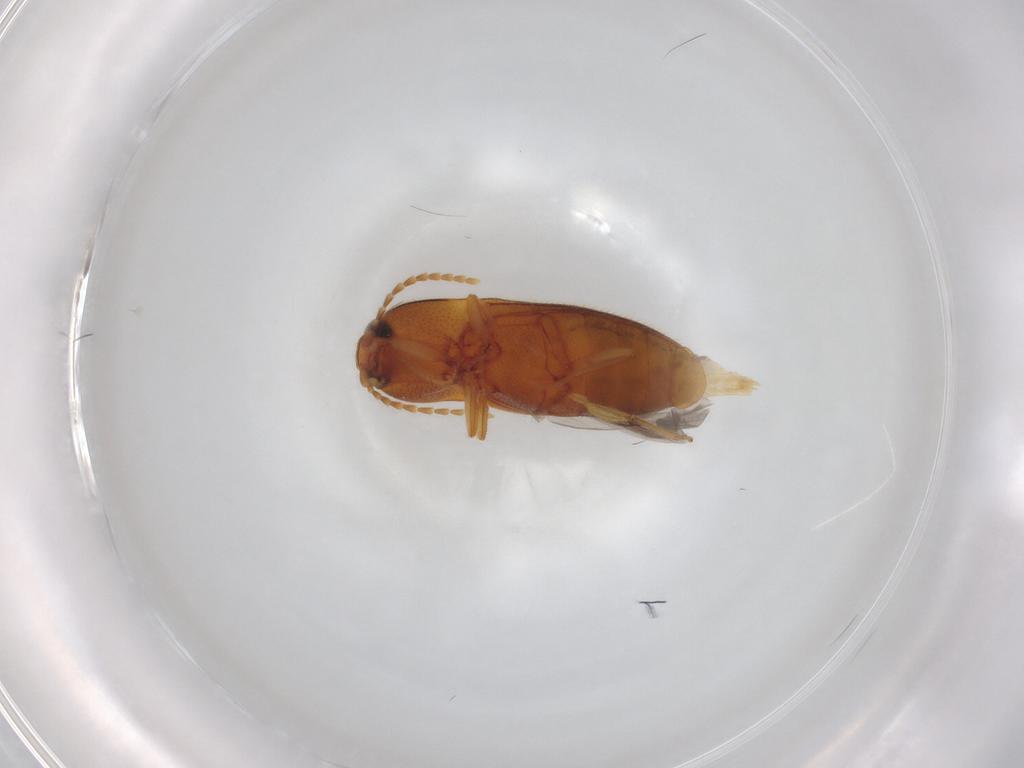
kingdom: Animalia
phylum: Arthropoda
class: Insecta
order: Coleoptera
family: Elateridae
